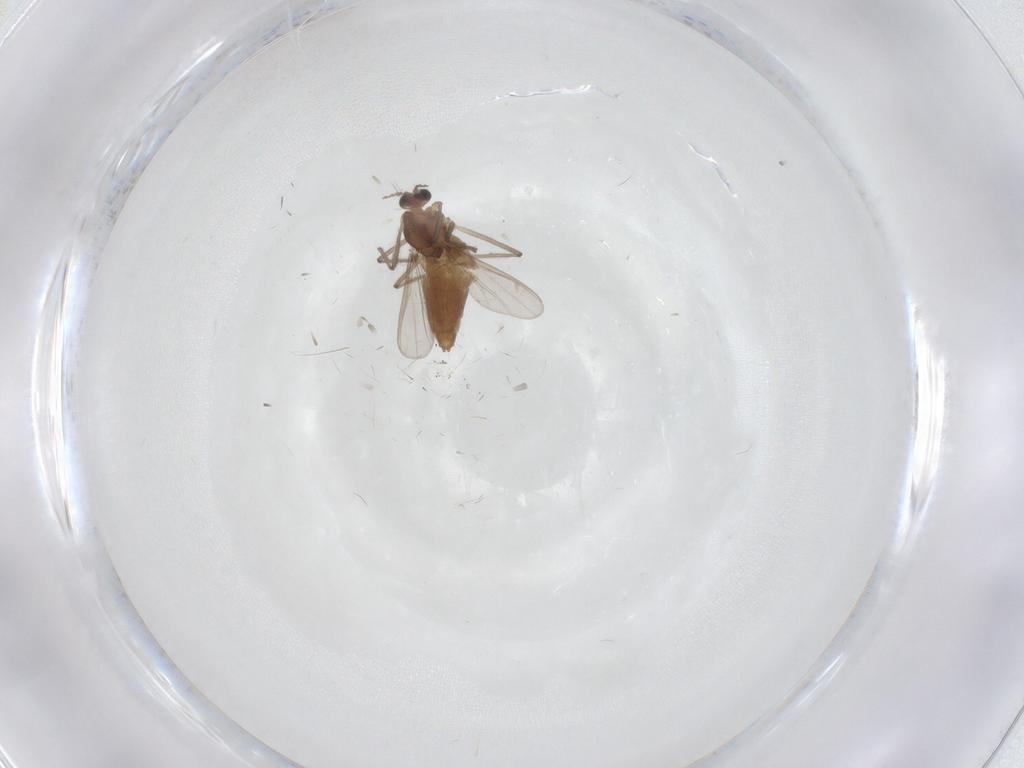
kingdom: Animalia
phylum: Arthropoda
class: Insecta
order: Diptera
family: Chironomidae
